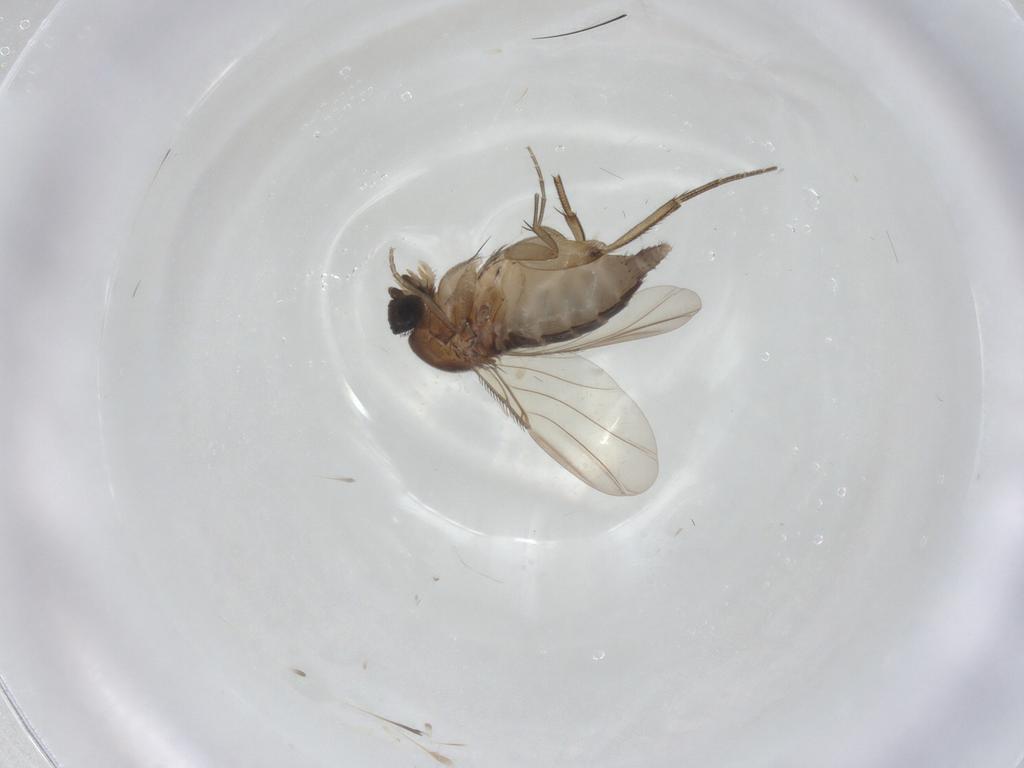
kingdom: Animalia
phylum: Arthropoda
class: Insecta
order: Diptera
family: Phoridae
